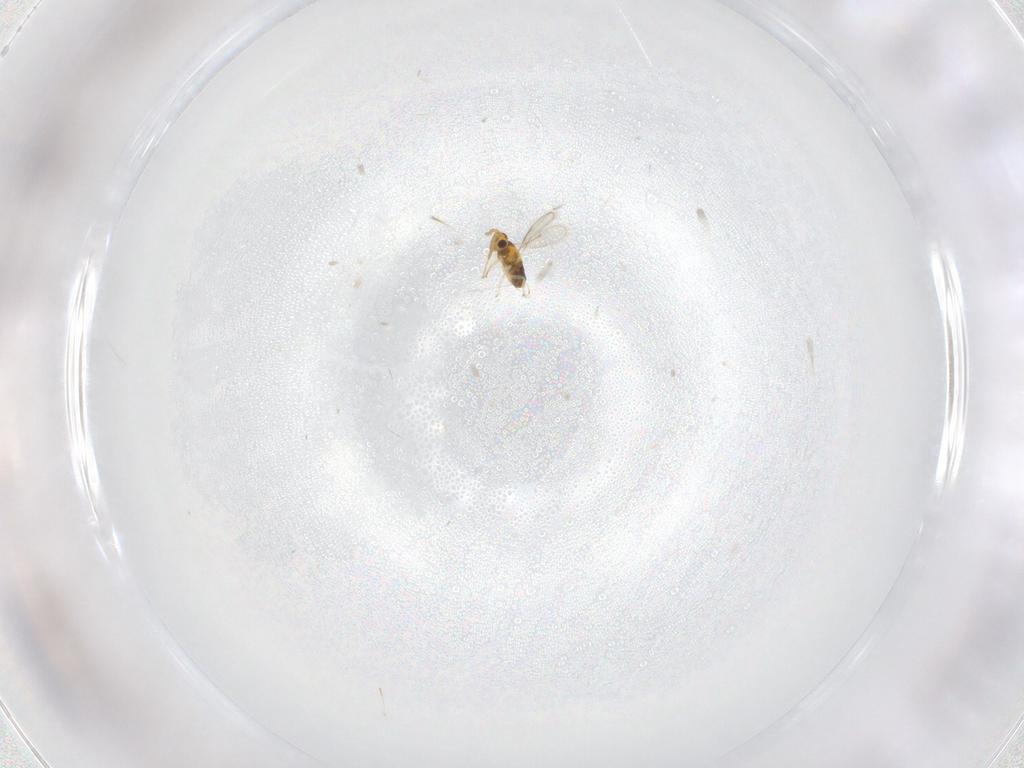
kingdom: Animalia
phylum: Arthropoda
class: Insecta
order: Hymenoptera
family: Aphelinidae
